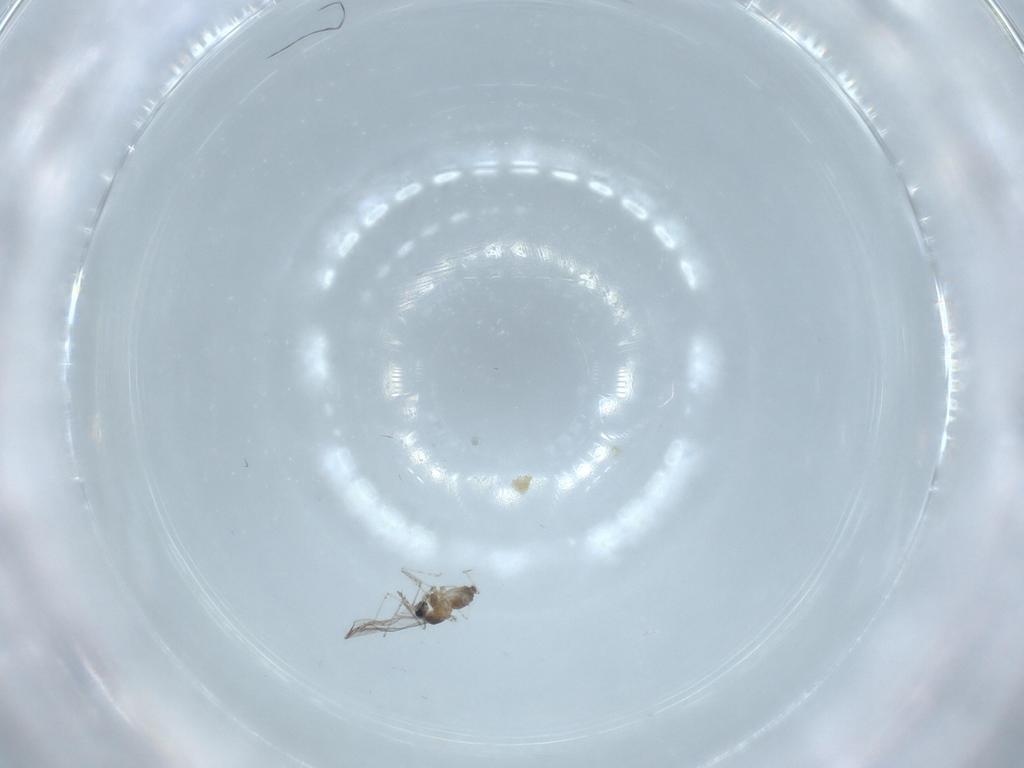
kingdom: Animalia
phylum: Arthropoda
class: Insecta
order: Diptera
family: Cecidomyiidae
